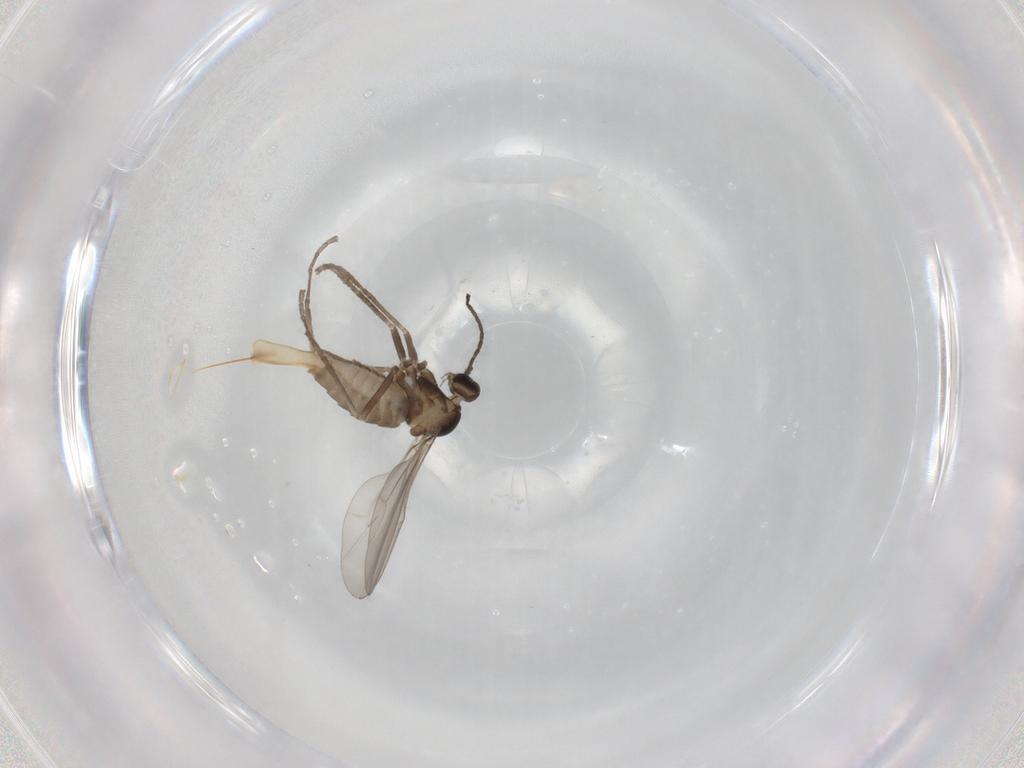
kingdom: Animalia
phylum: Arthropoda
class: Insecta
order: Diptera
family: Cecidomyiidae
